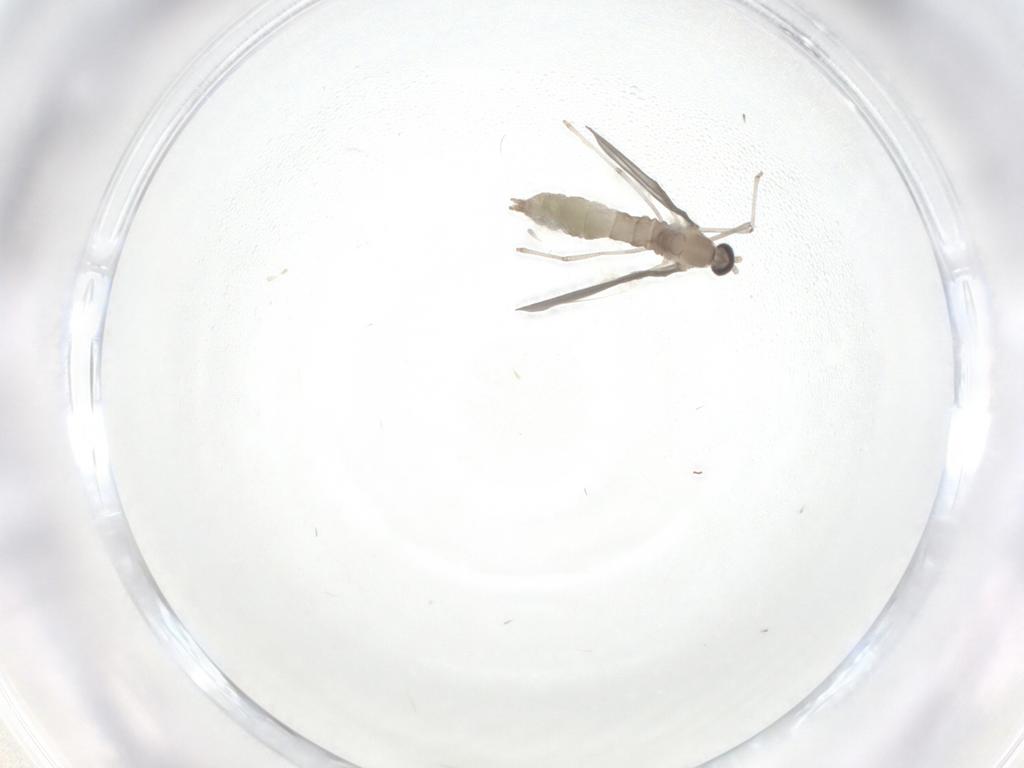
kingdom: Animalia
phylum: Arthropoda
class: Insecta
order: Diptera
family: Cecidomyiidae
